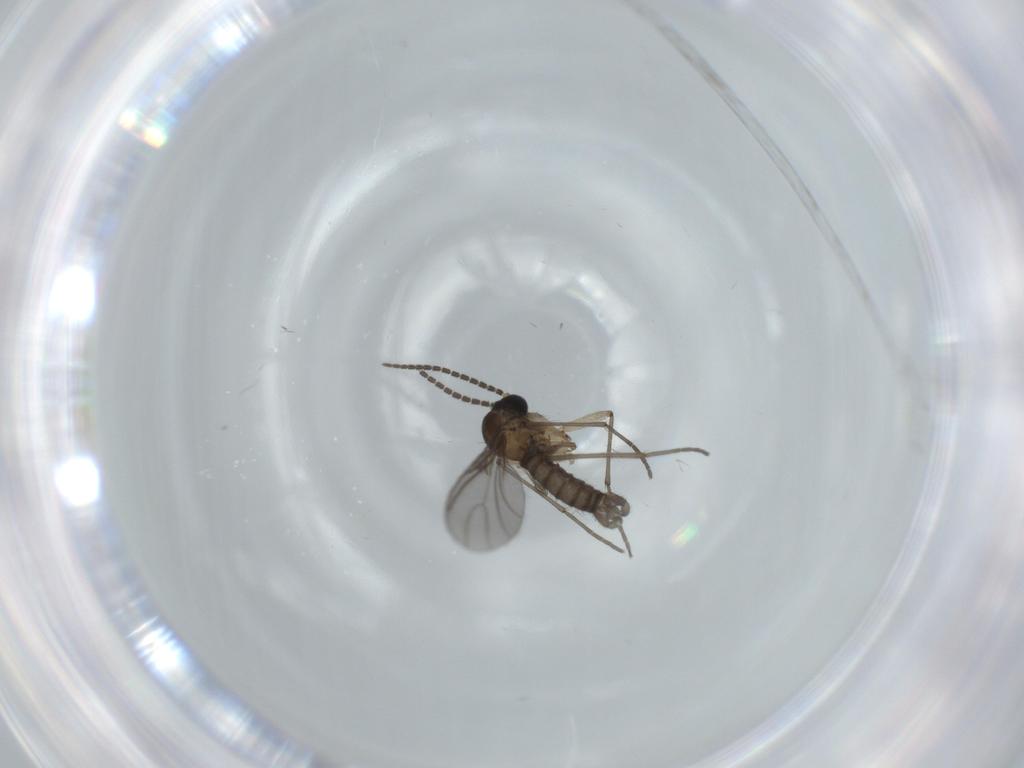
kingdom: Animalia
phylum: Arthropoda
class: Insecta
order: Diptera
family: Sciaridae
